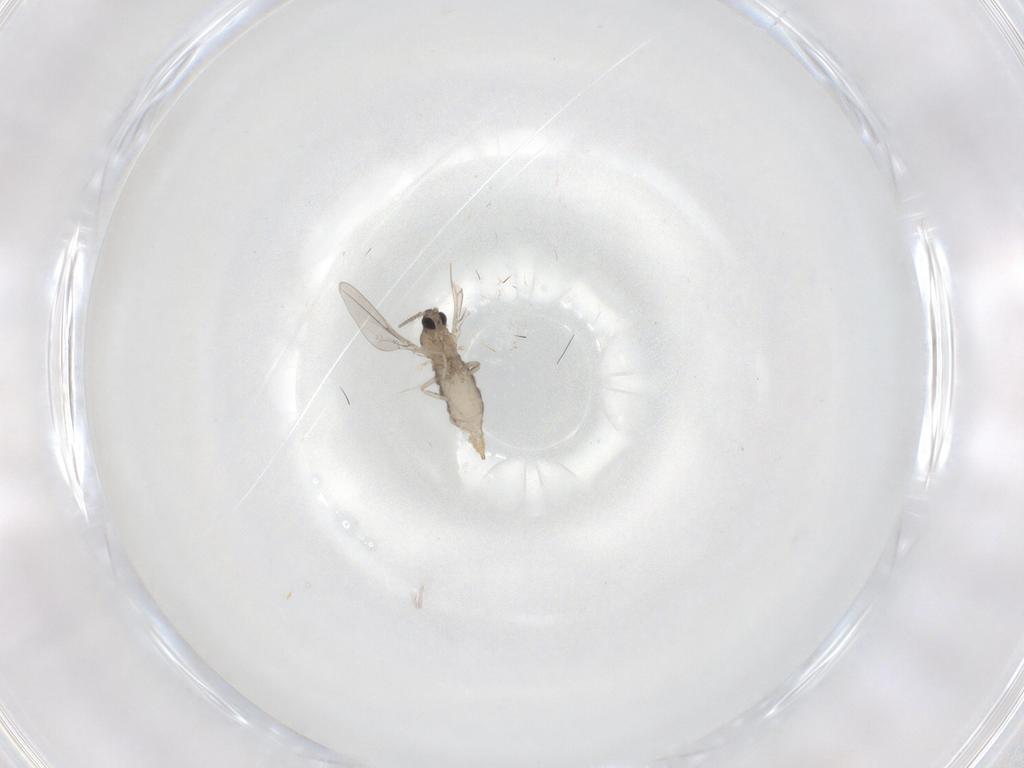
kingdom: Animalia
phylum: Arthropoda
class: Insecta
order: Diptera
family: Cecidomyiidae
